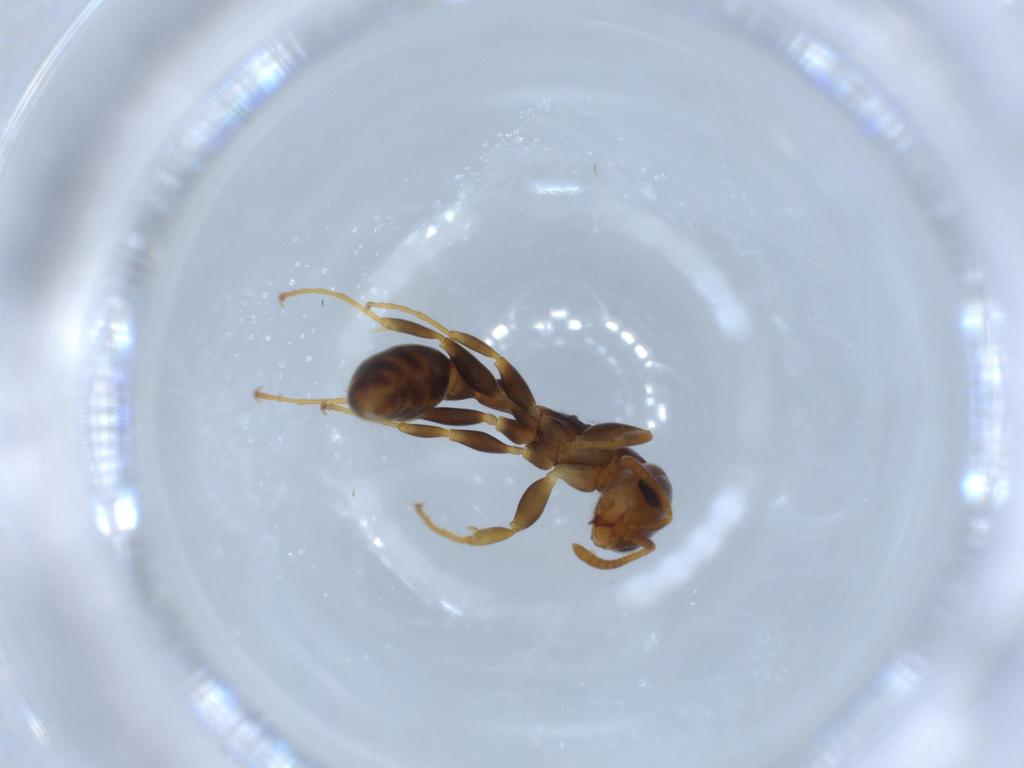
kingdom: Animalia
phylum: Arthropoda
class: Insecta
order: Hymenoptera
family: Formicidae
